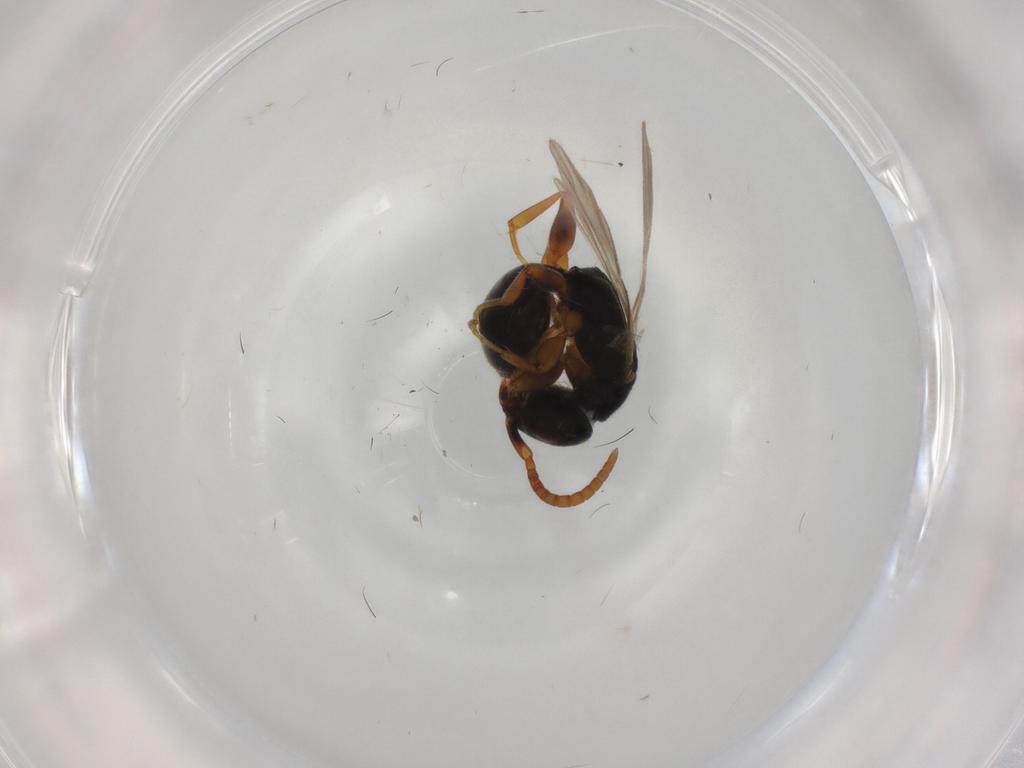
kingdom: Animalia
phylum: Arthropoda
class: Insecta
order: Hymenoptera
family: Bethylidae
